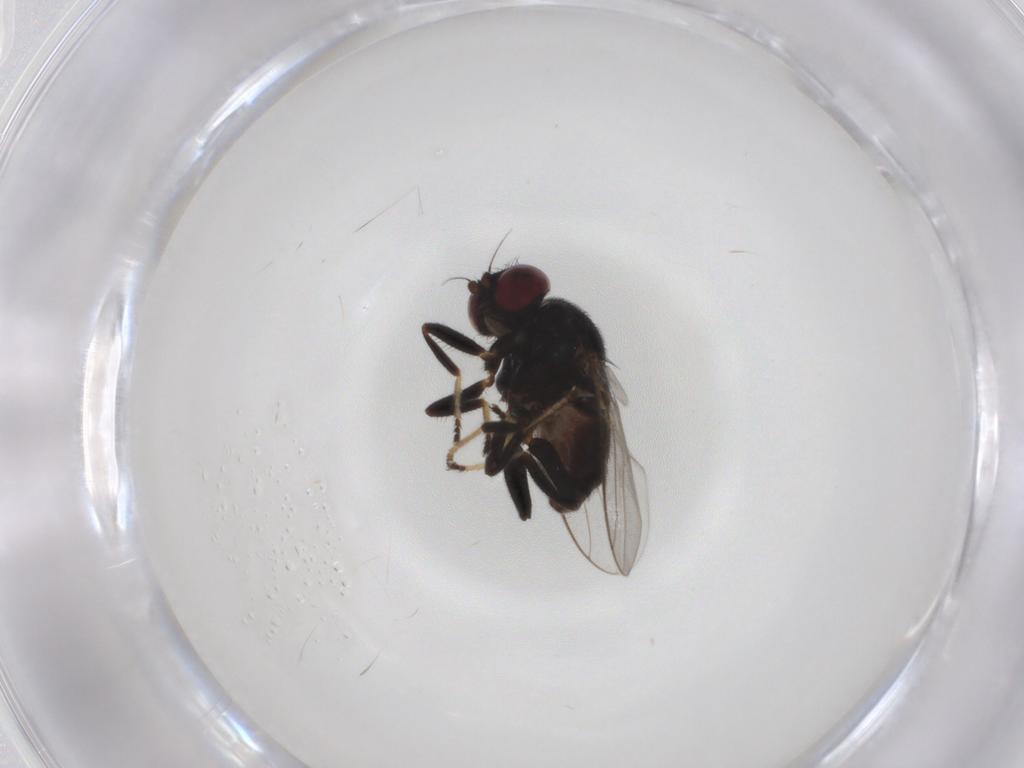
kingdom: Animalia
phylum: Arthropoda
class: Insecta
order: Diptera
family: Chloropidae
